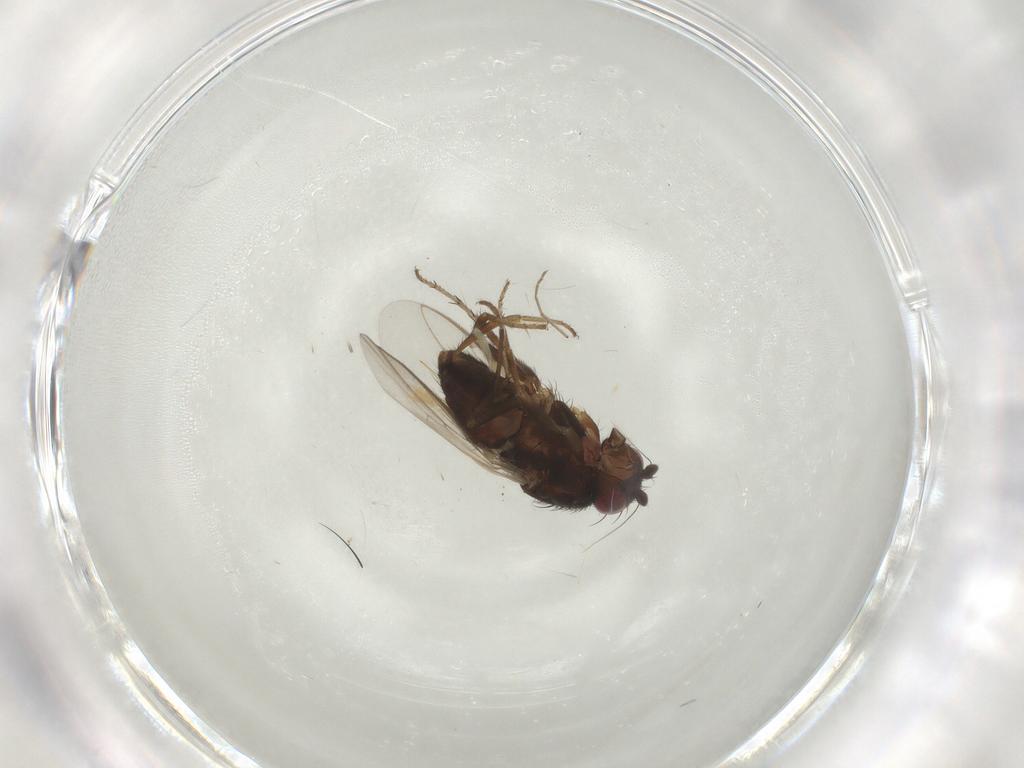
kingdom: Animalia
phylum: Arthropoda
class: Insecta
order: Diptera
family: Sphaeroceridae
